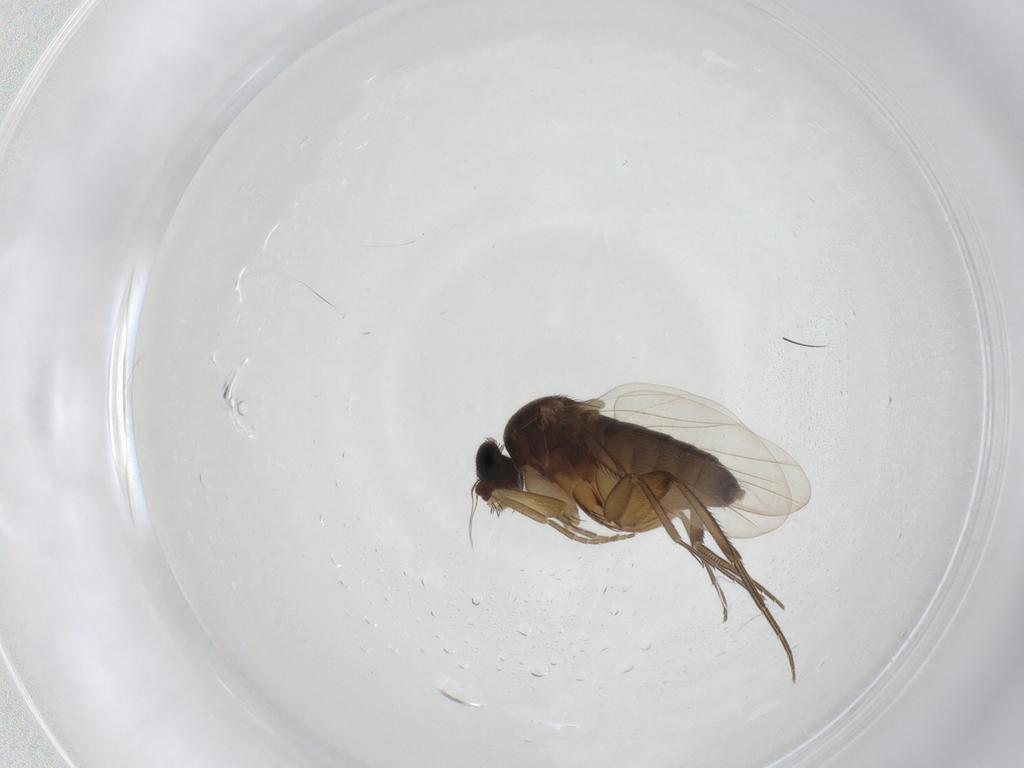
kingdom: Animalia
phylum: Arthropoda
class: Insecta
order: Diptera
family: Phoridae
